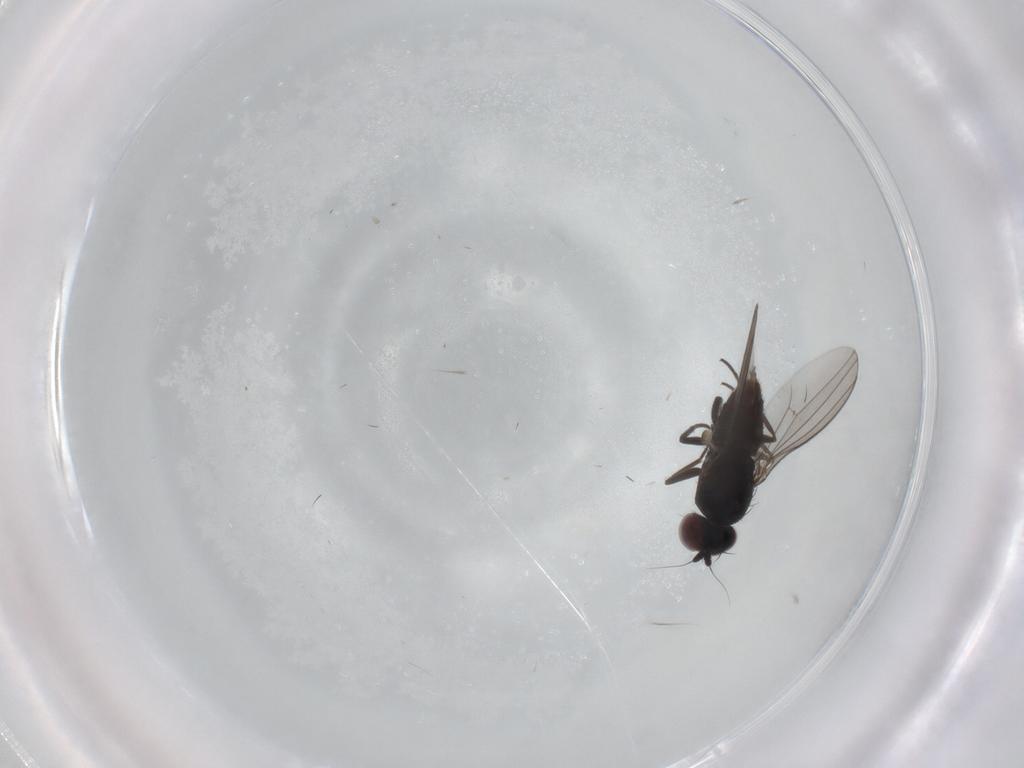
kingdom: Animalia
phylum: Arthropoda
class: Insecta
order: Diptera
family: Dolichopodidae
